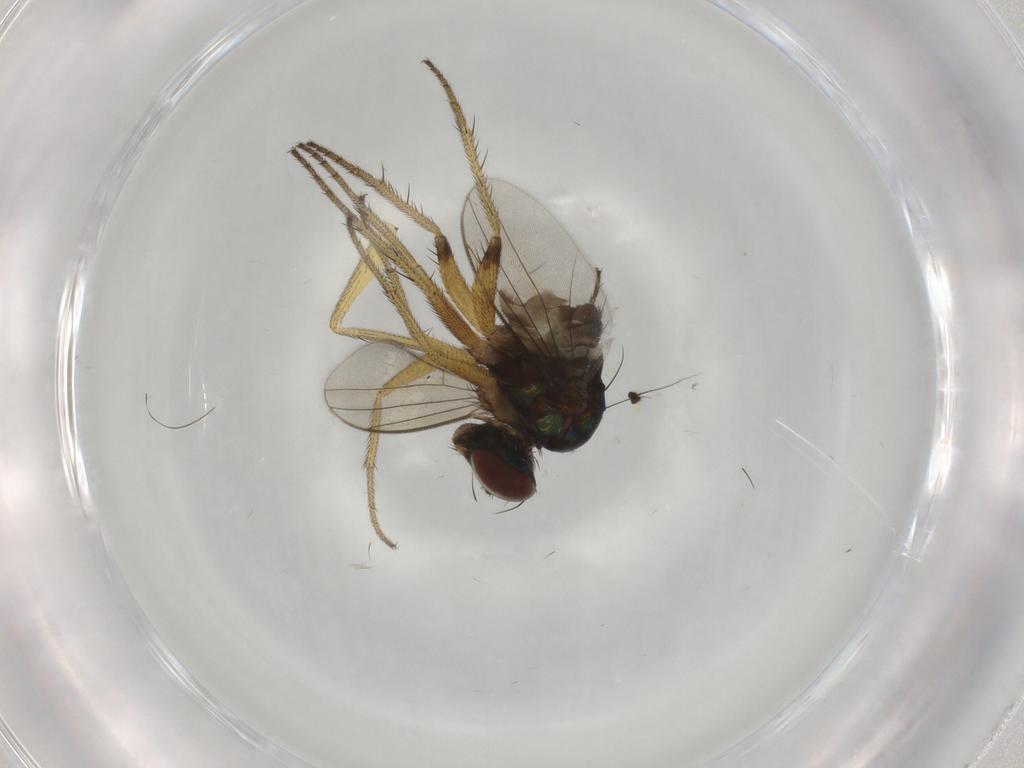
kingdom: Animalia
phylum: Arthropoda
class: Insecta
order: Diptera
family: Dolichopodidae
